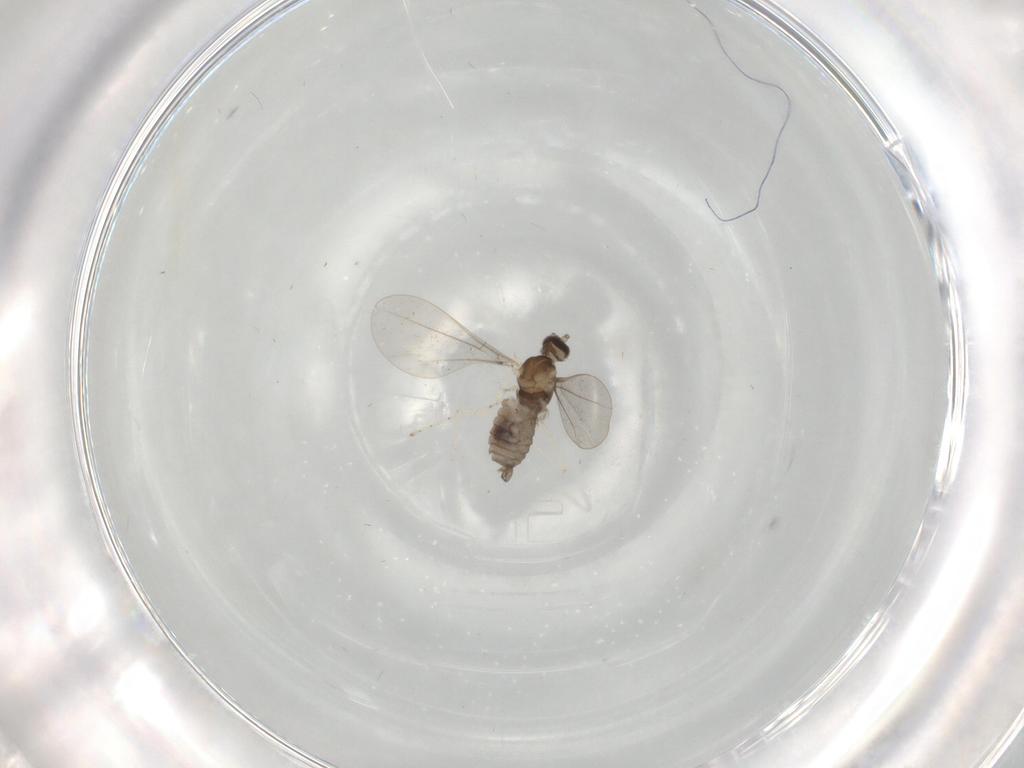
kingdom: Animalia
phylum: Arthropoda
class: Insecta
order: Diptera
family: Cecidomyiidae
